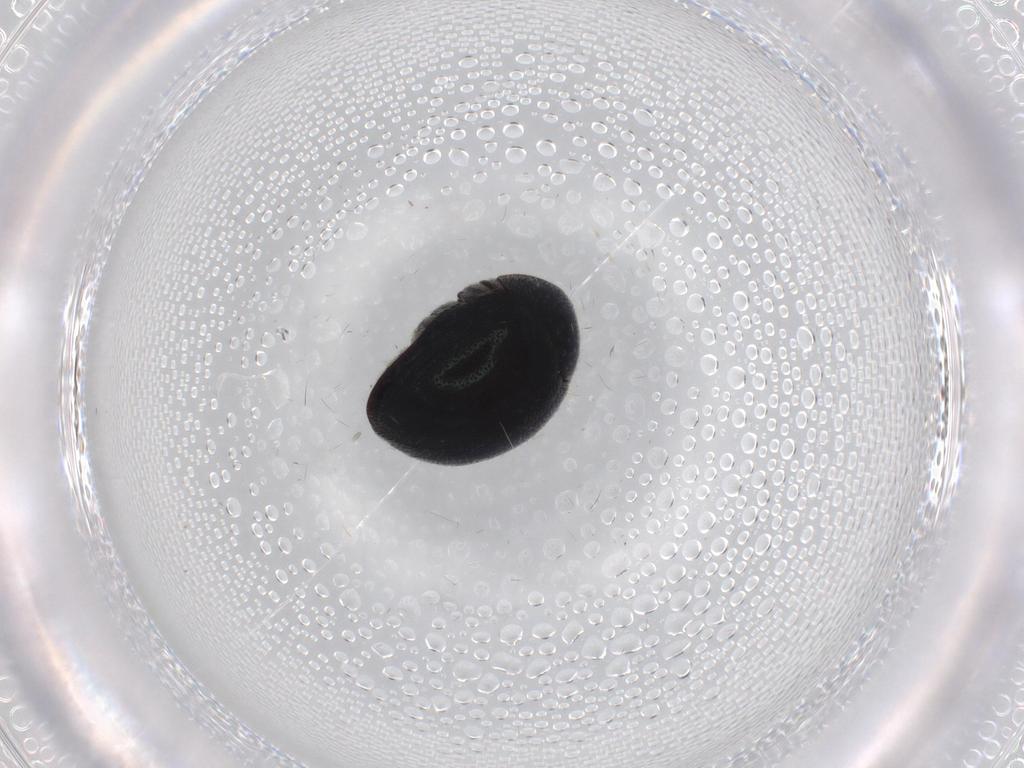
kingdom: Animalia
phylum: Arthropoda
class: Insecta
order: Coleoptera
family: Ptinidae
